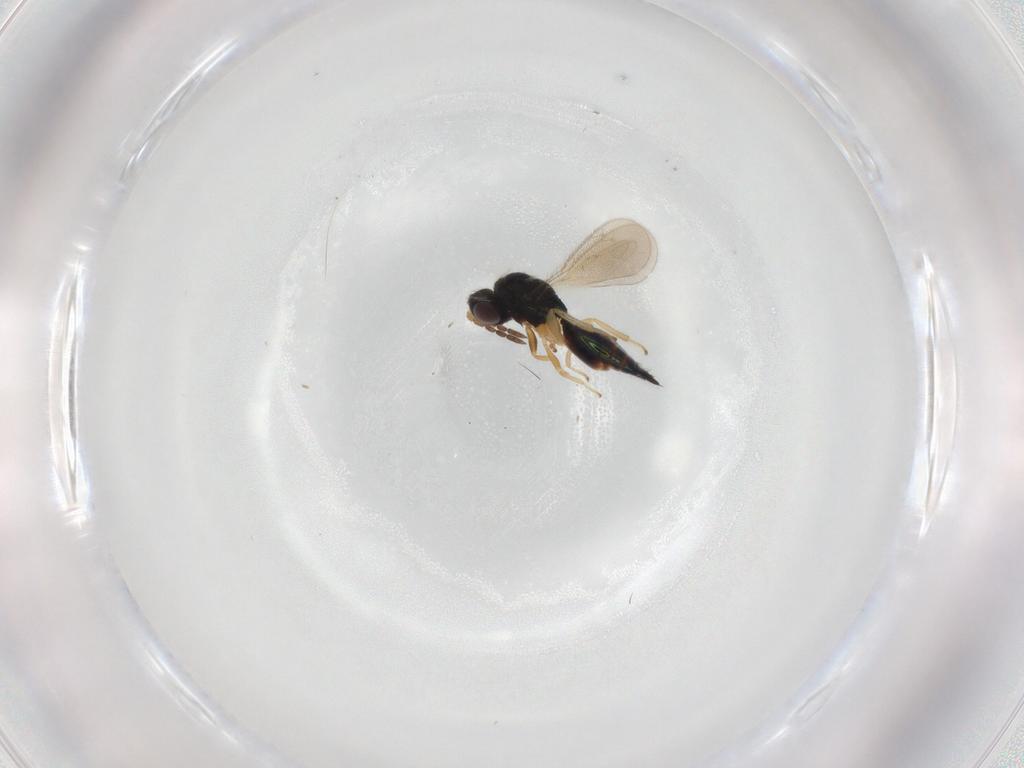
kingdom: Animalia
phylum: Arthropoda
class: Insecta
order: Hymenoptera
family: Eulophidae
